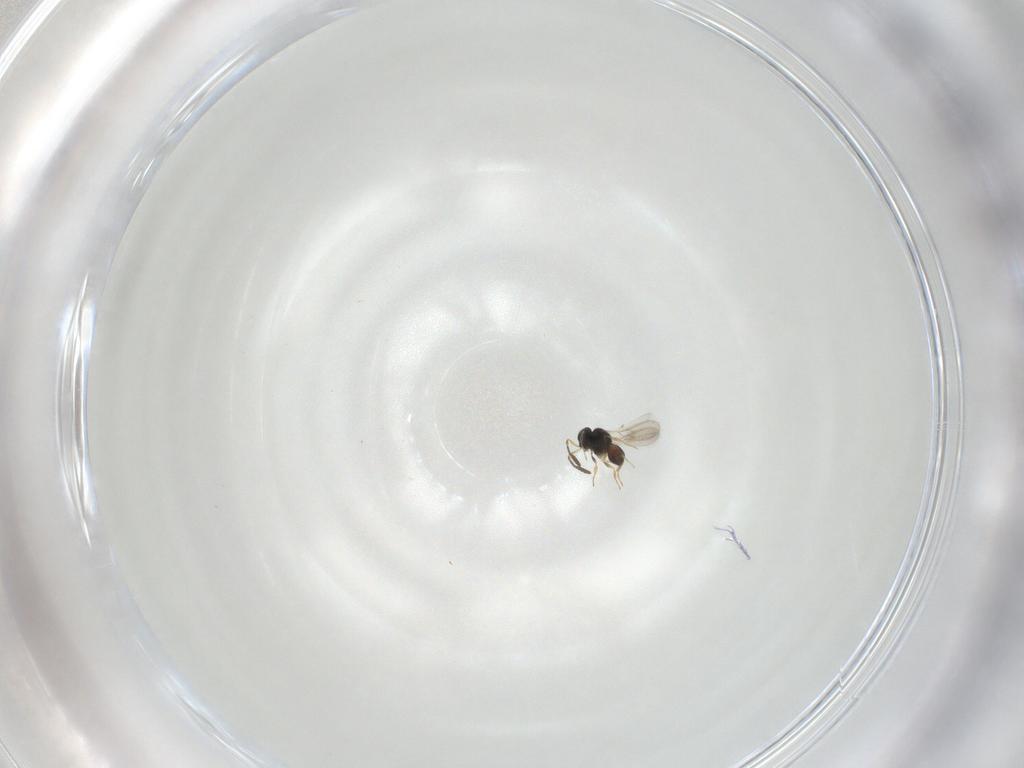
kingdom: Animalia
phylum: Arthropoda
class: Insecta
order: Hymenoptera
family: Scelionidae
